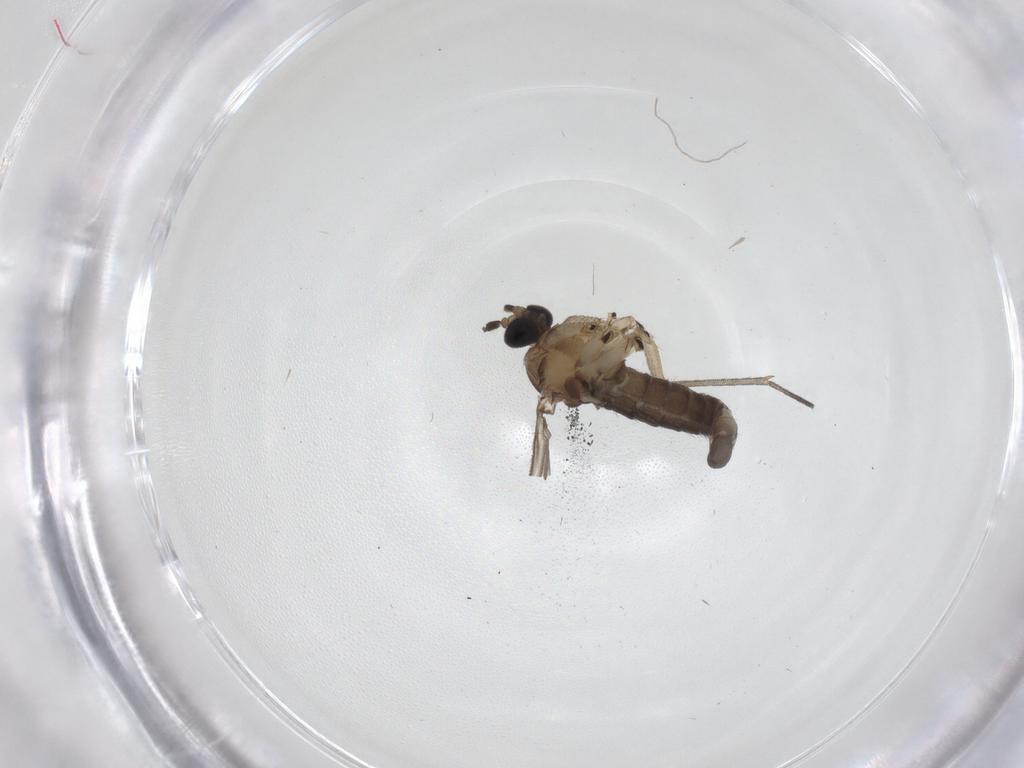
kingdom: Animalia
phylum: Arthropoda
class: Insecta
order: Diptera
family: Sciaridae
